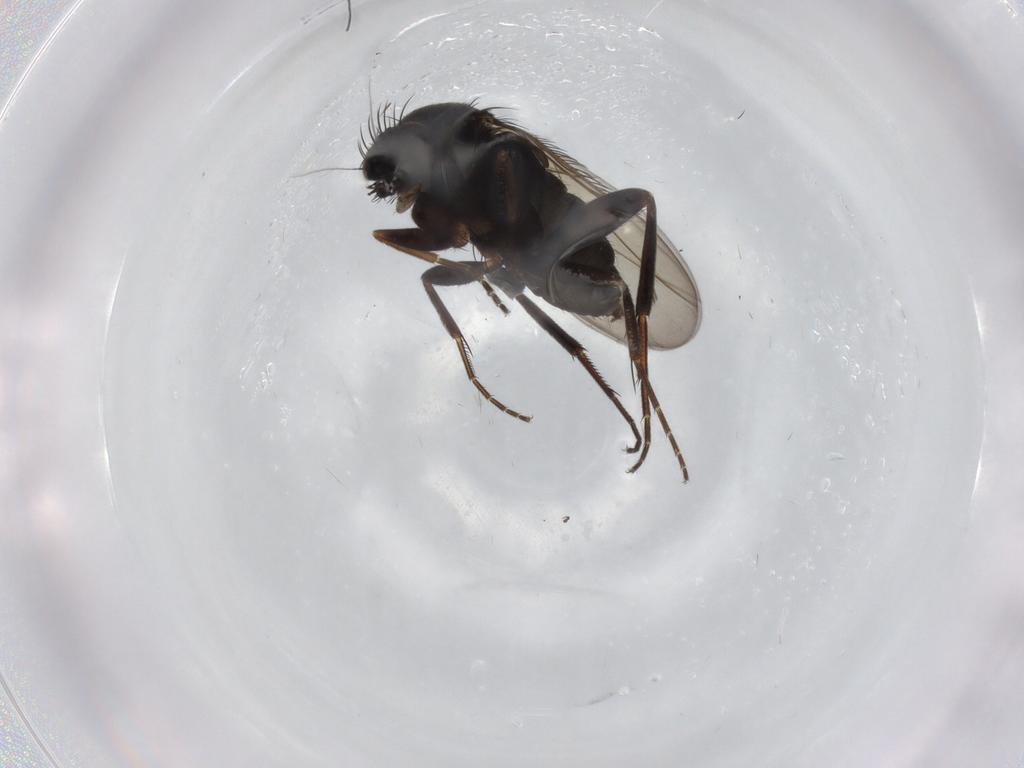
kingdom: Animalia
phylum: Arthropoda
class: Insecta
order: Diptera
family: Phoridae
